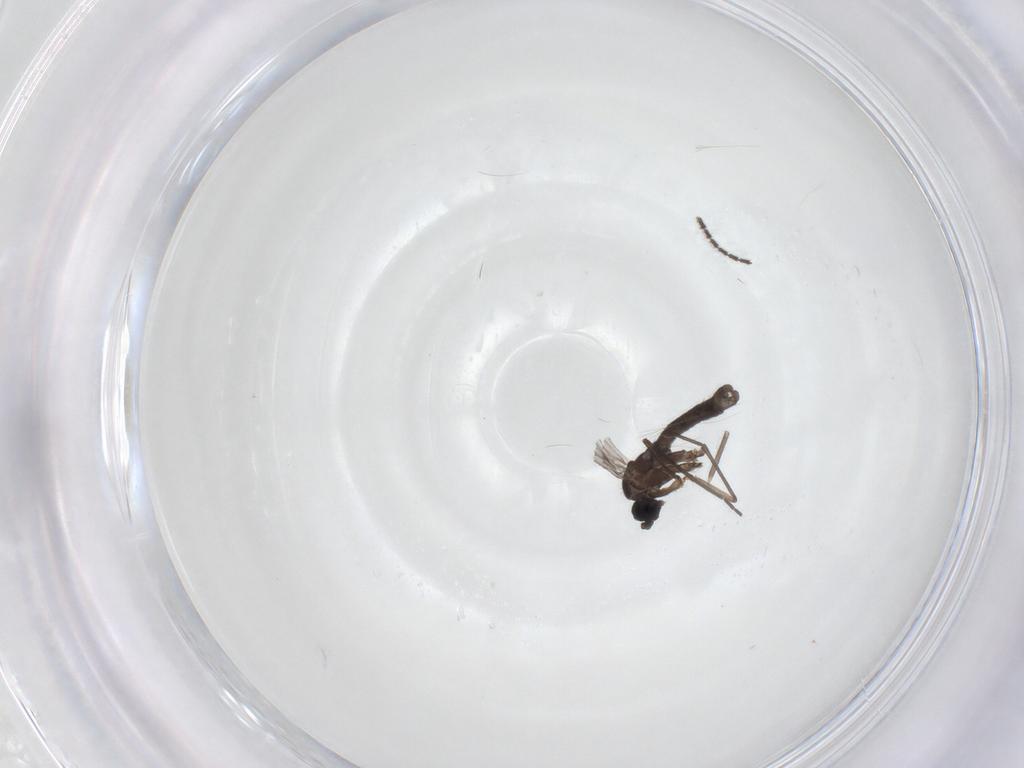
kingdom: Animalia
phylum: Arthropoda
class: Insecta
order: Diptera
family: Sciaridae
